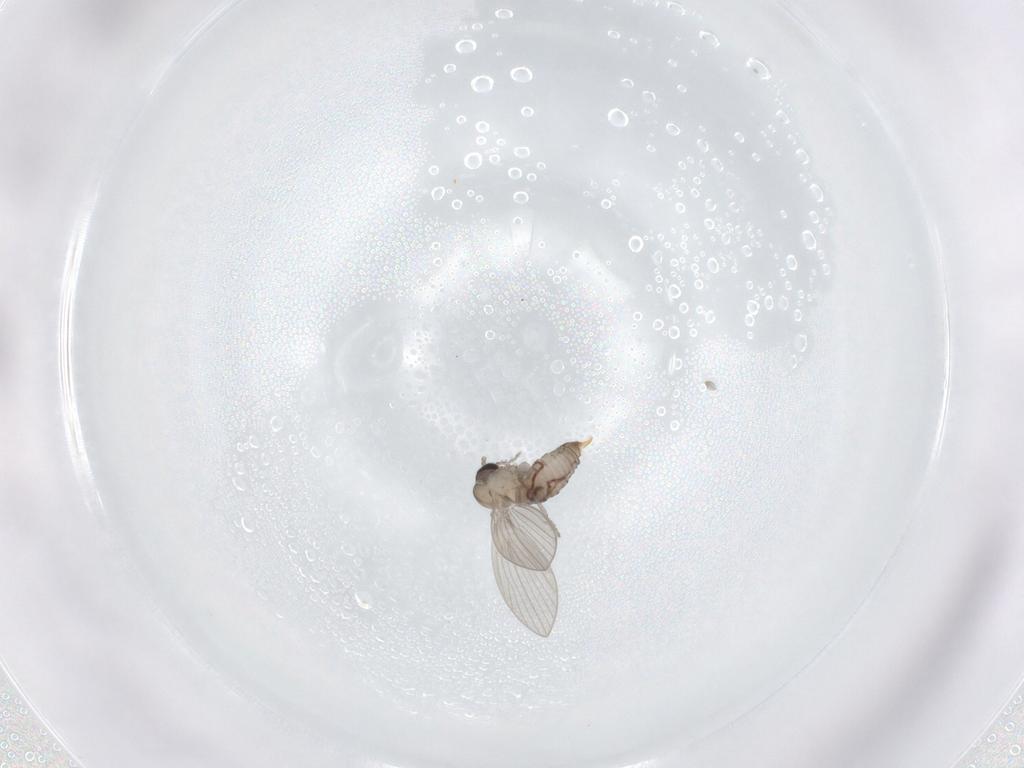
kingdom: Animalia
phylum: Arthropoda
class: Insecta
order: Diptera
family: Psychodidae
